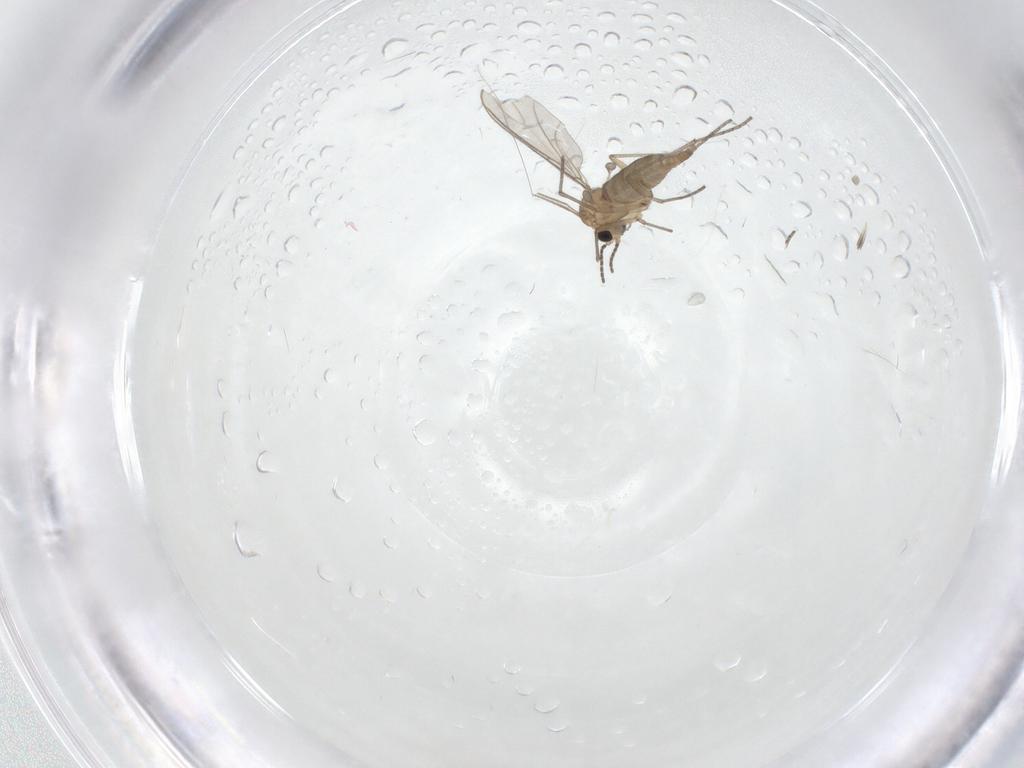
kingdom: Animalia
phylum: Arthropoda
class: Insecta
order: Diptera
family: Sciaridae
